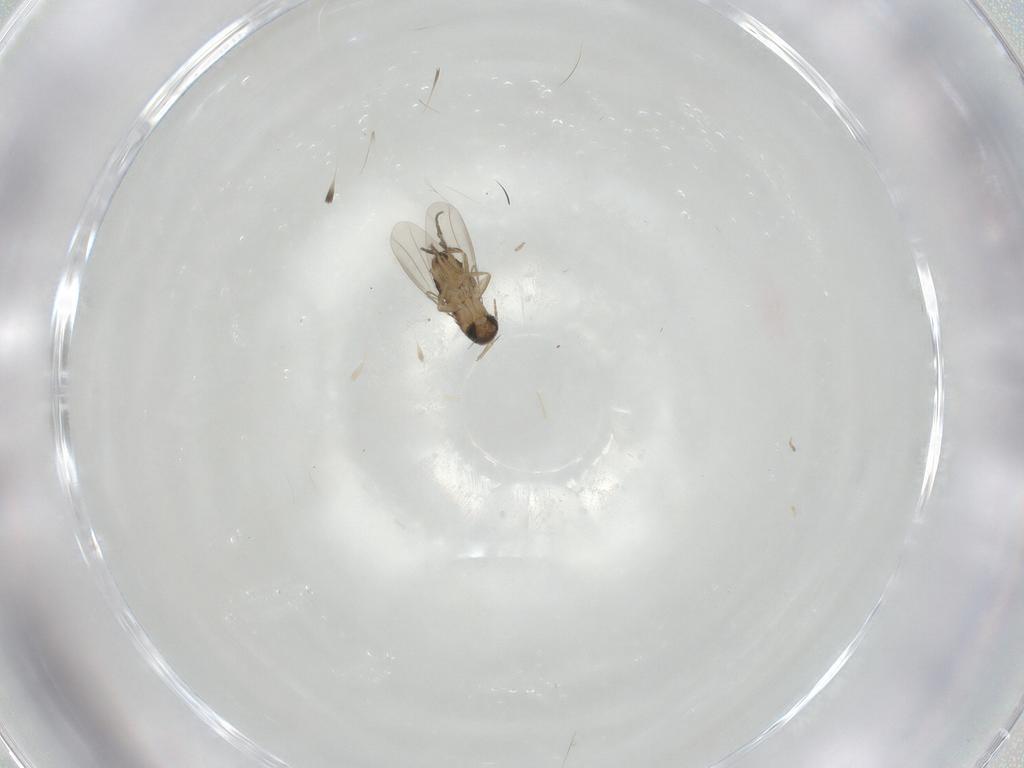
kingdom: Animalia
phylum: Arthropoda
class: Insecta
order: Diptera
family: Phoridae
